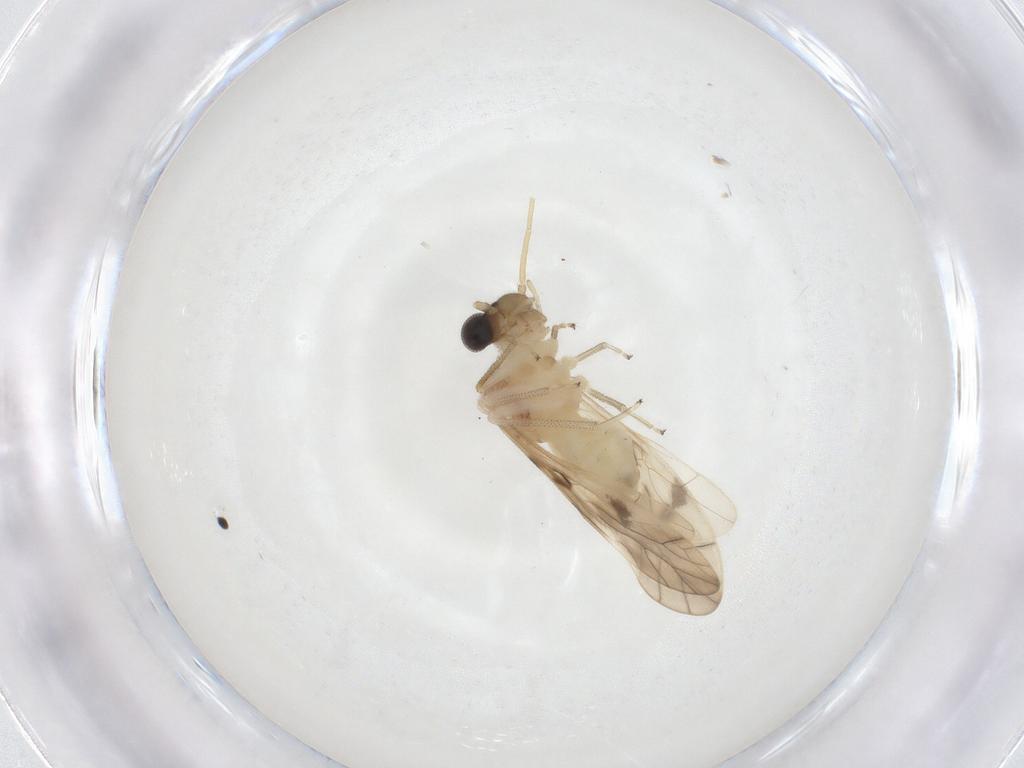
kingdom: Animalia
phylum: Arthropoda
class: Insecta
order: Psocodea
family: Caeciliusidae
